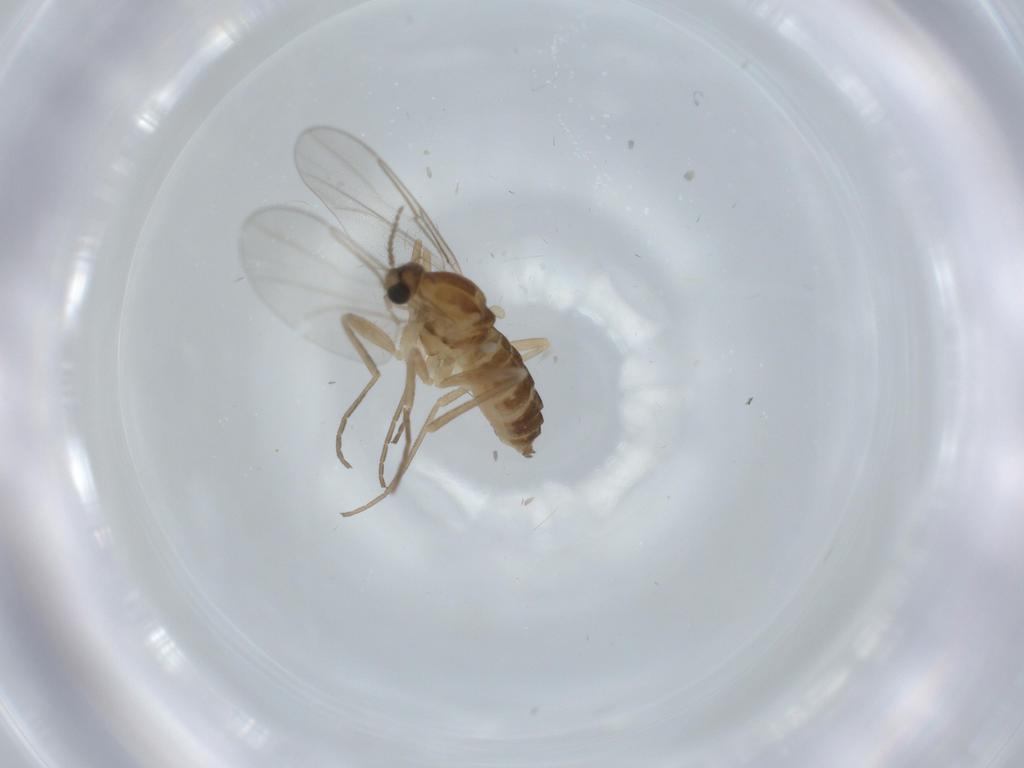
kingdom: Animalia
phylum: Arthropoda
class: Insecta
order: Diptera
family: Cecidomyiidae
